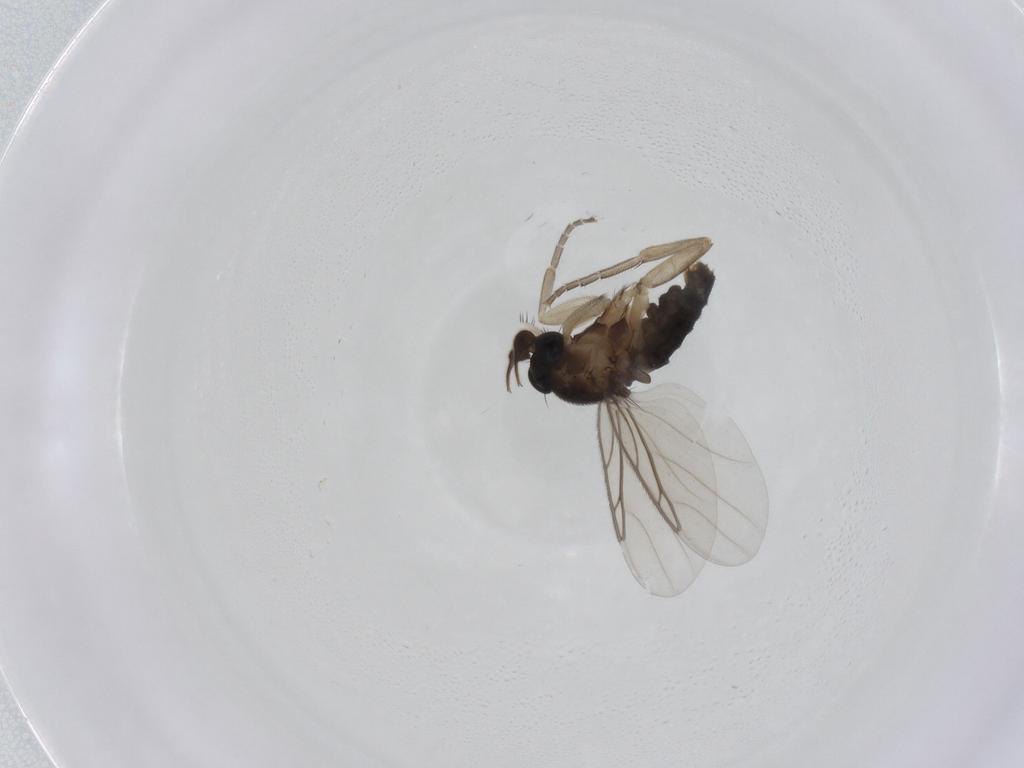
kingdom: Animalia
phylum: Arthropoda
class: Insecta
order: Diptera
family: Phoridae
